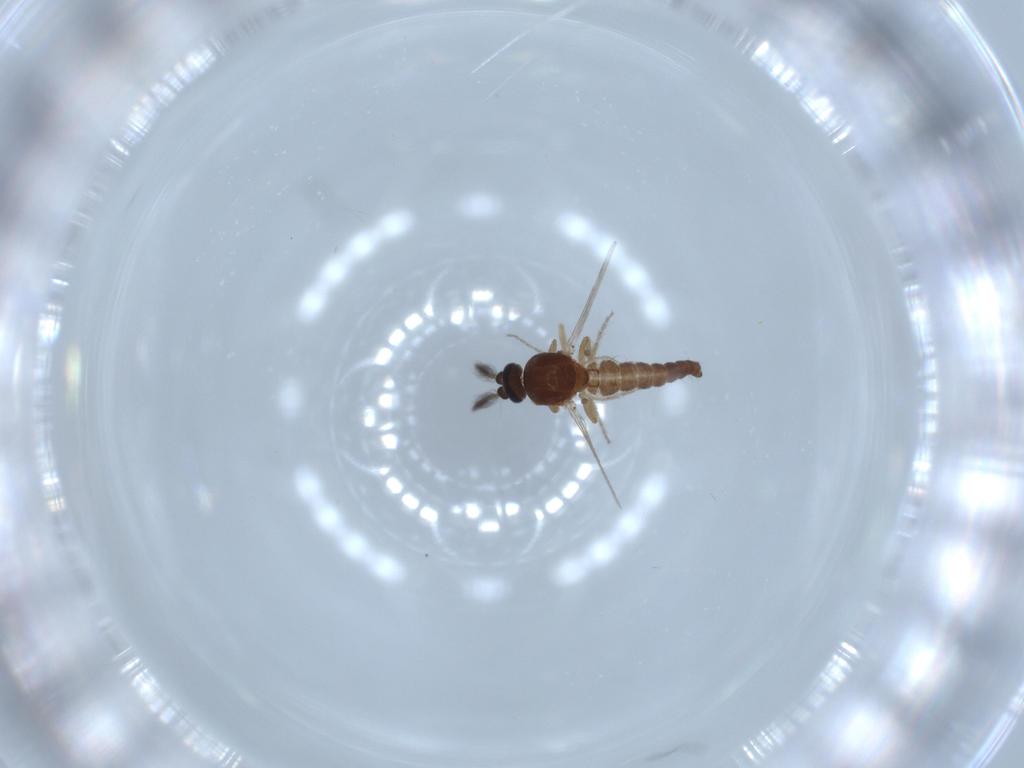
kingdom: Animalia
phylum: Arthropoda
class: Insecta
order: Diptera
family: Ceratopogonidae
